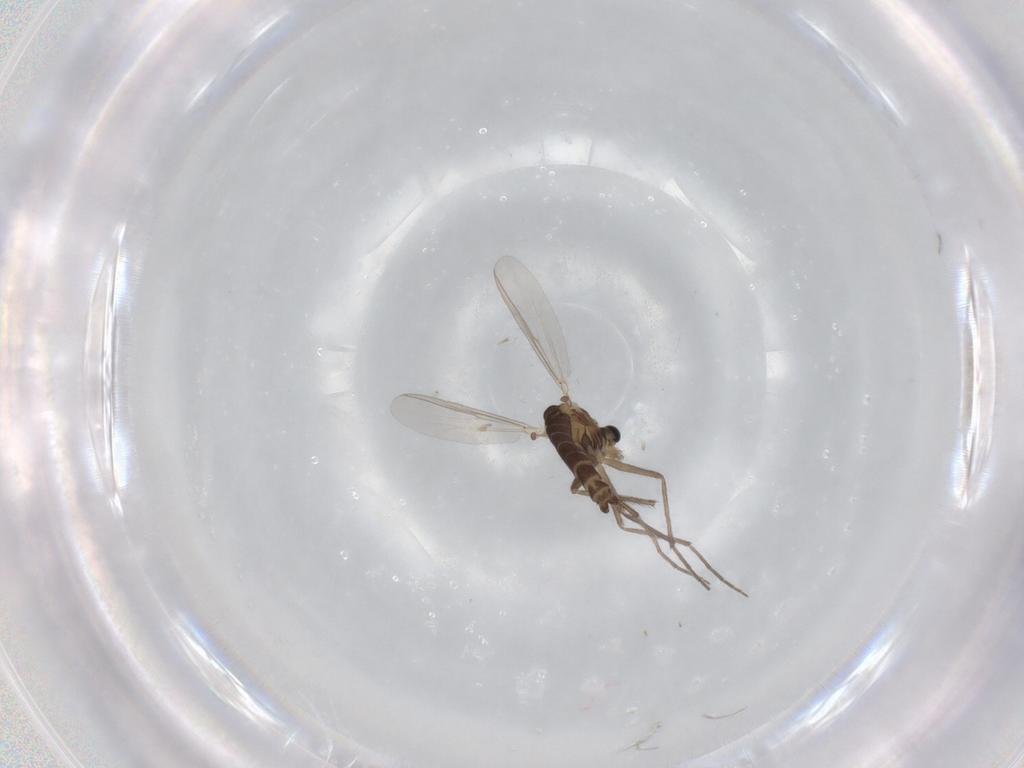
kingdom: Animalia
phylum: Arthropoda
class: Insecta
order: Diptera
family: Chironomidae
